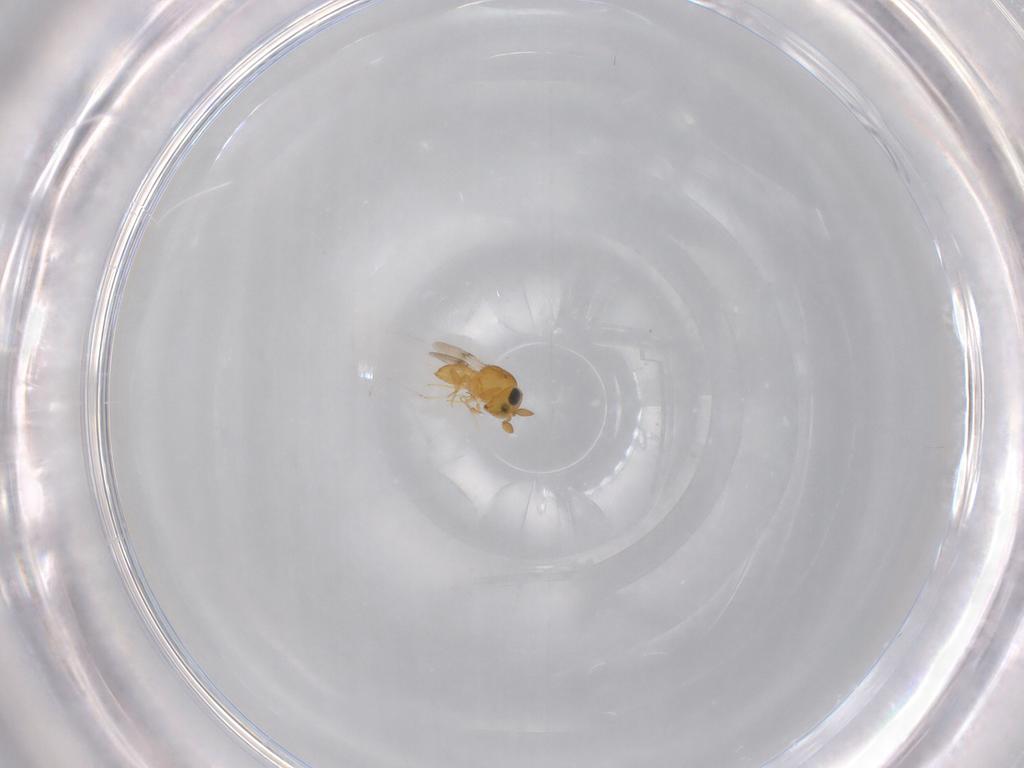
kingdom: Animalia
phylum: Arthropoda
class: Insecta
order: Hymenoptera
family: Scelionidae
